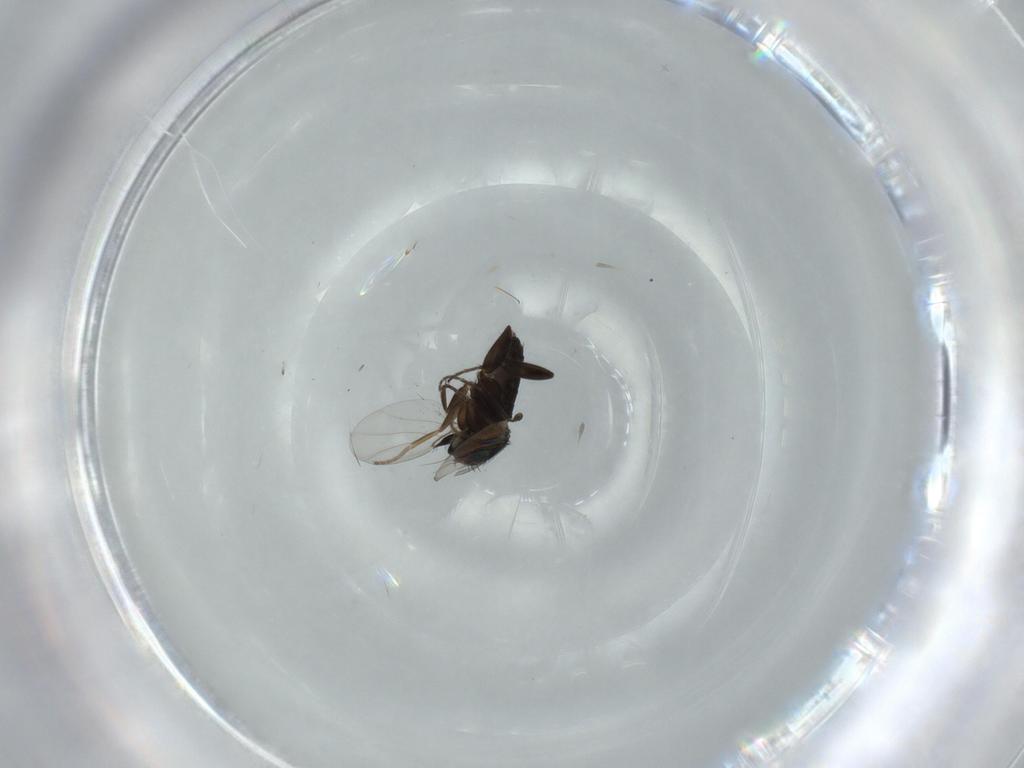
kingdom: Animalia
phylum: Arthropoda
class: Insecta
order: Diptera
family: Phoridae
